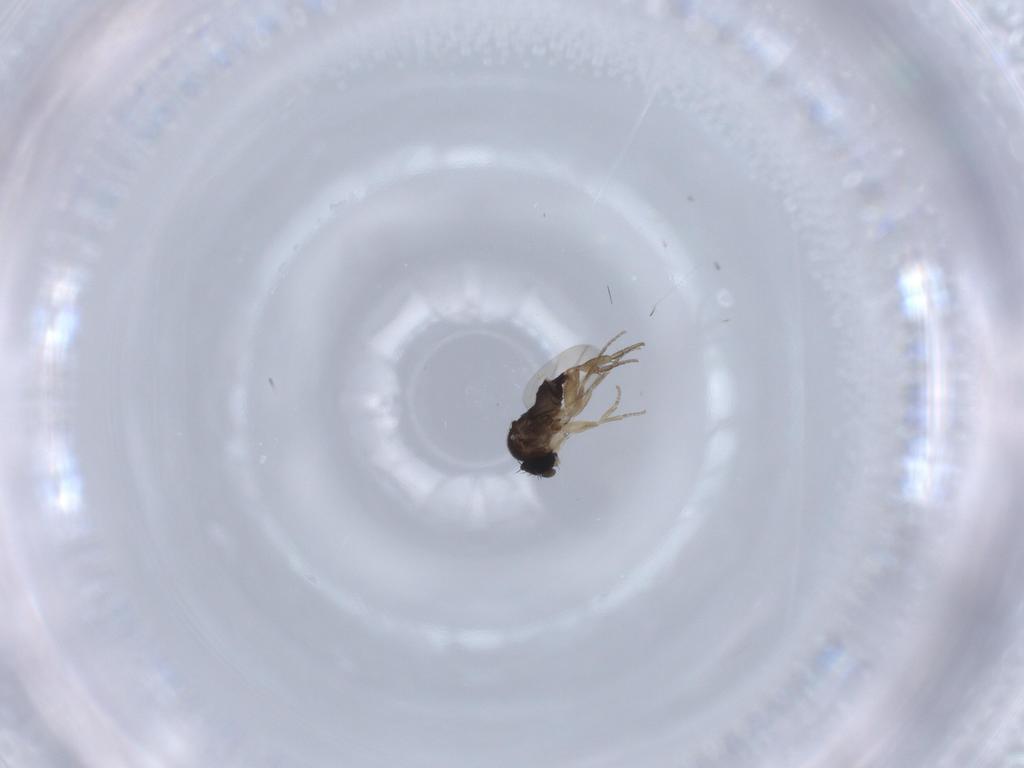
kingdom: Animalia
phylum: Arthropoda
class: Insecta
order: Diptera
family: Phoridae
